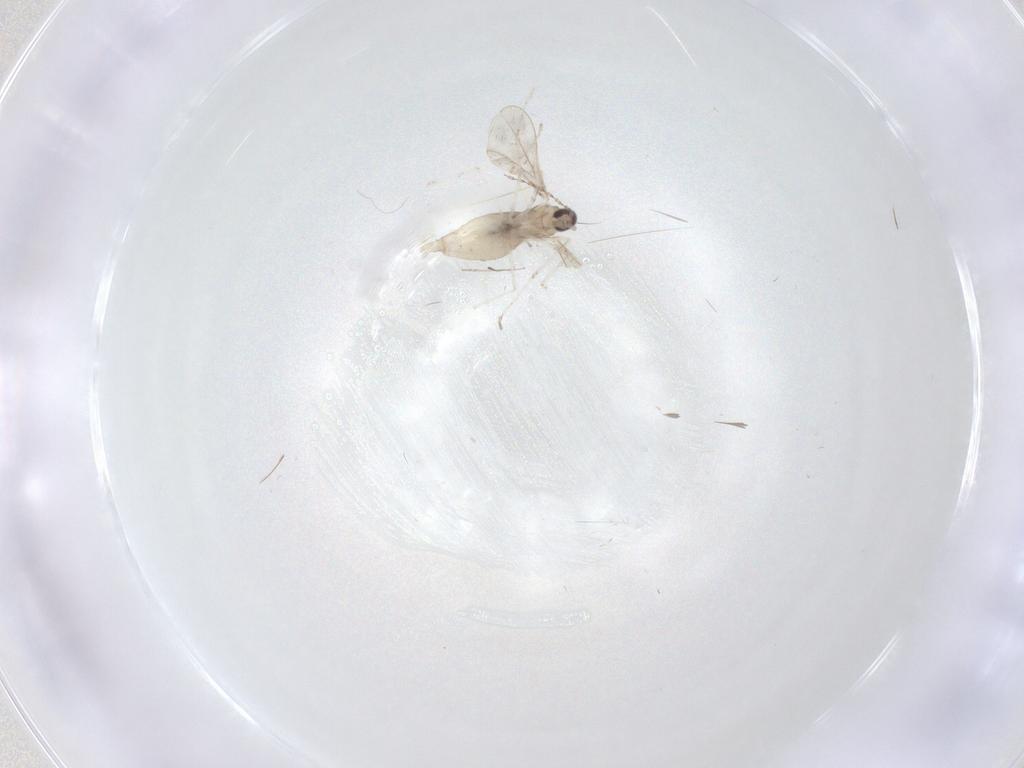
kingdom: Animalia
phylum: Arthropoda
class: Insecta
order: Diptera
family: Cecidomyiidae
